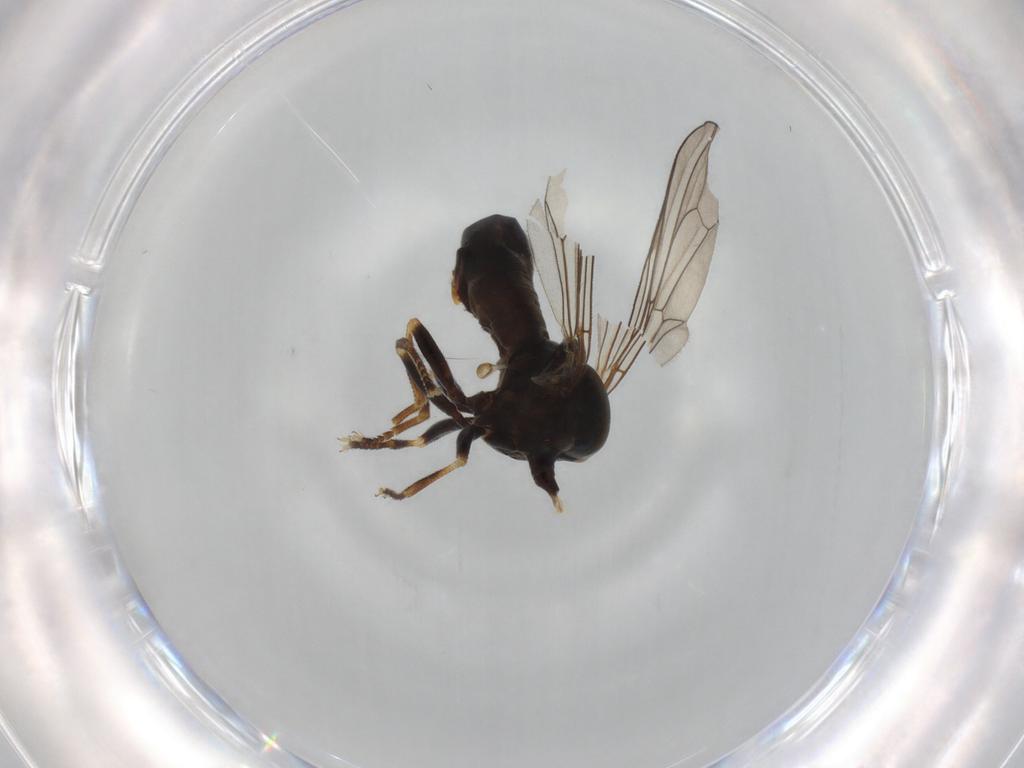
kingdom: Animalia
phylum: Arthropoda
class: Insecta
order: Diptera
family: Pipunculidae
